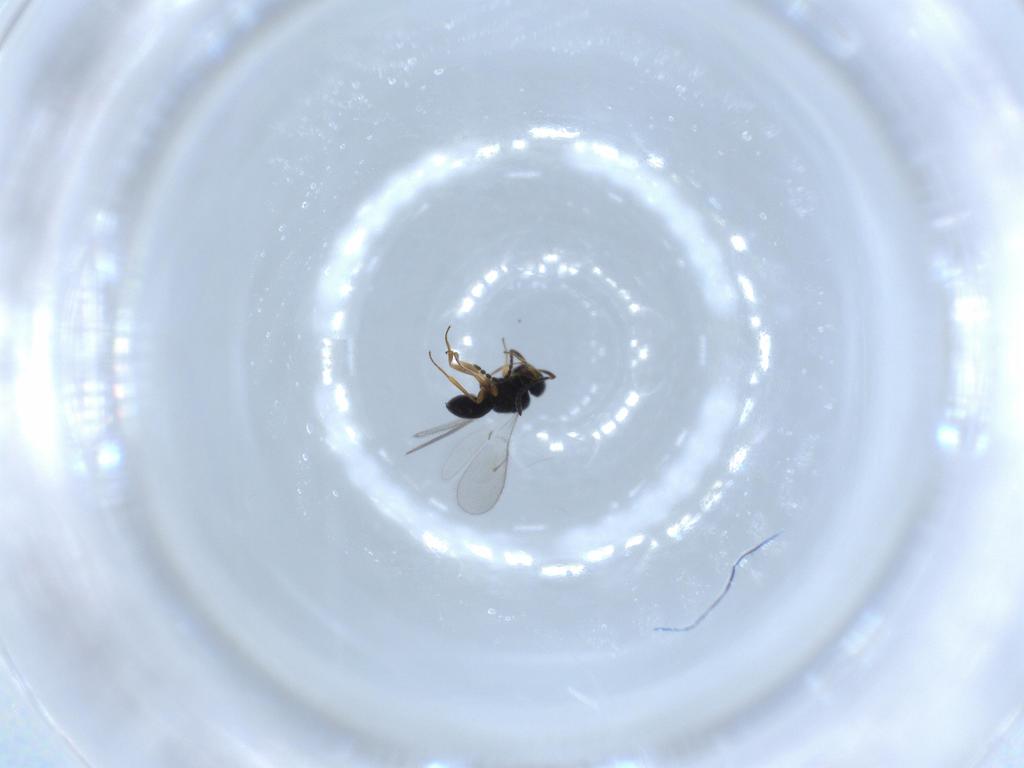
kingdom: Animalia
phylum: Arthropoda
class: Insecta
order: Hymenoptera
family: Scelionidae
